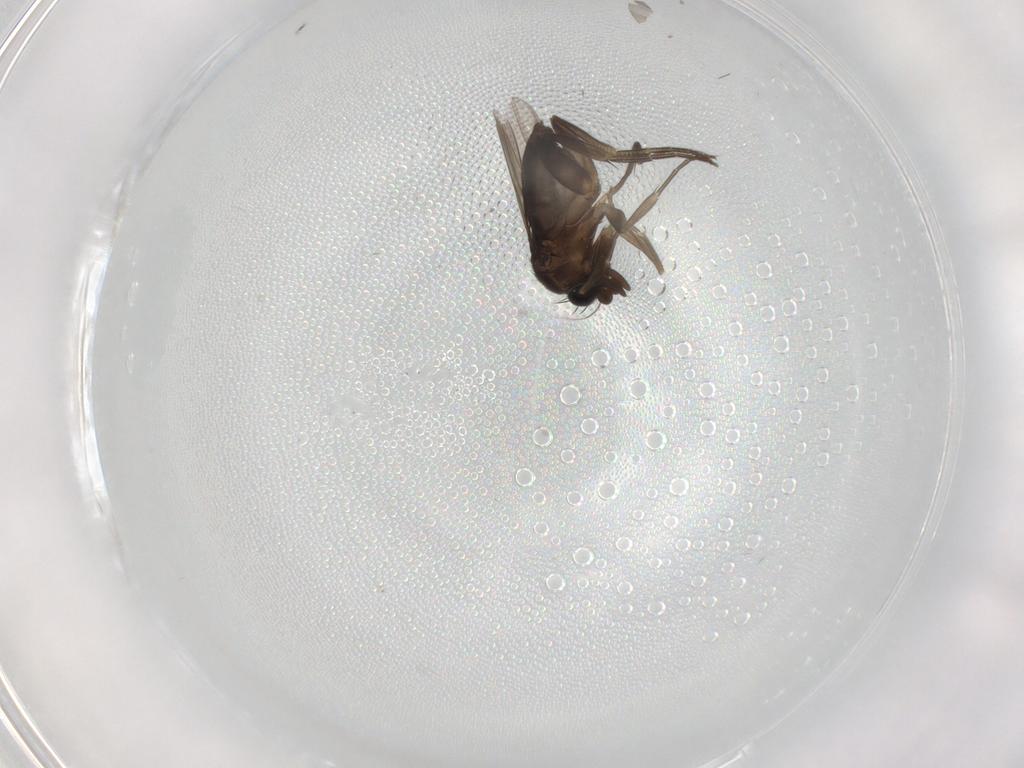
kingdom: Animalia
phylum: Arthropoda
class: Insecta
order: Diptera
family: Phoridae
